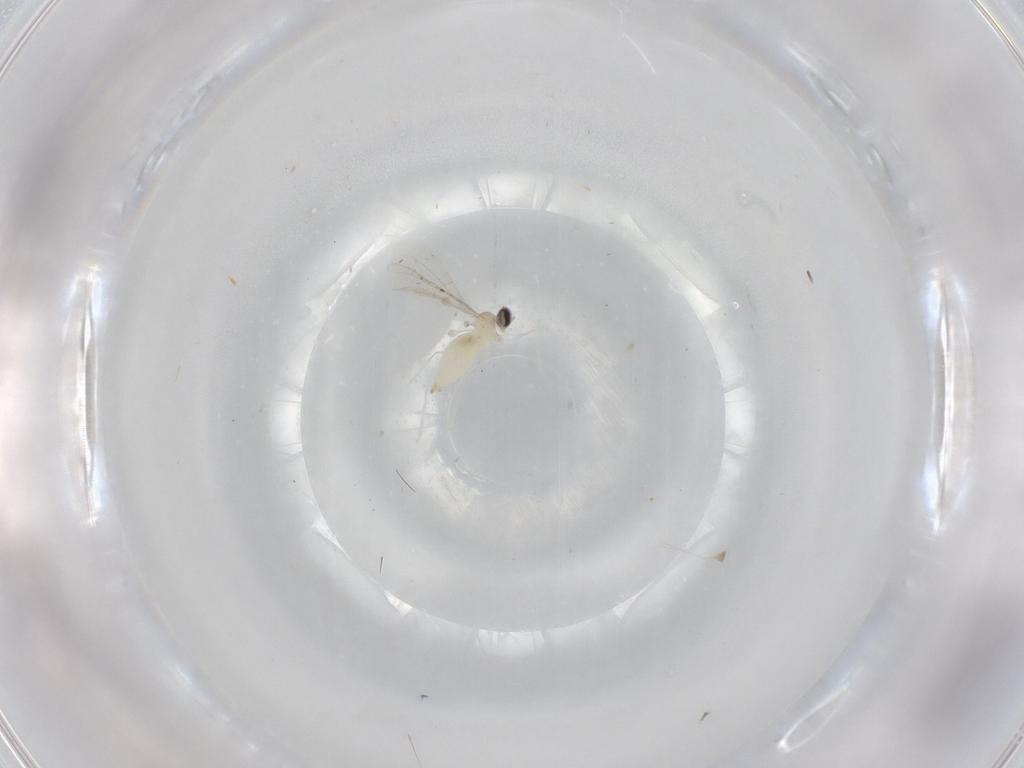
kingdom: Animalia
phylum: Arthropoda
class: Insecta
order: Diptera
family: Cecidomyiidae
